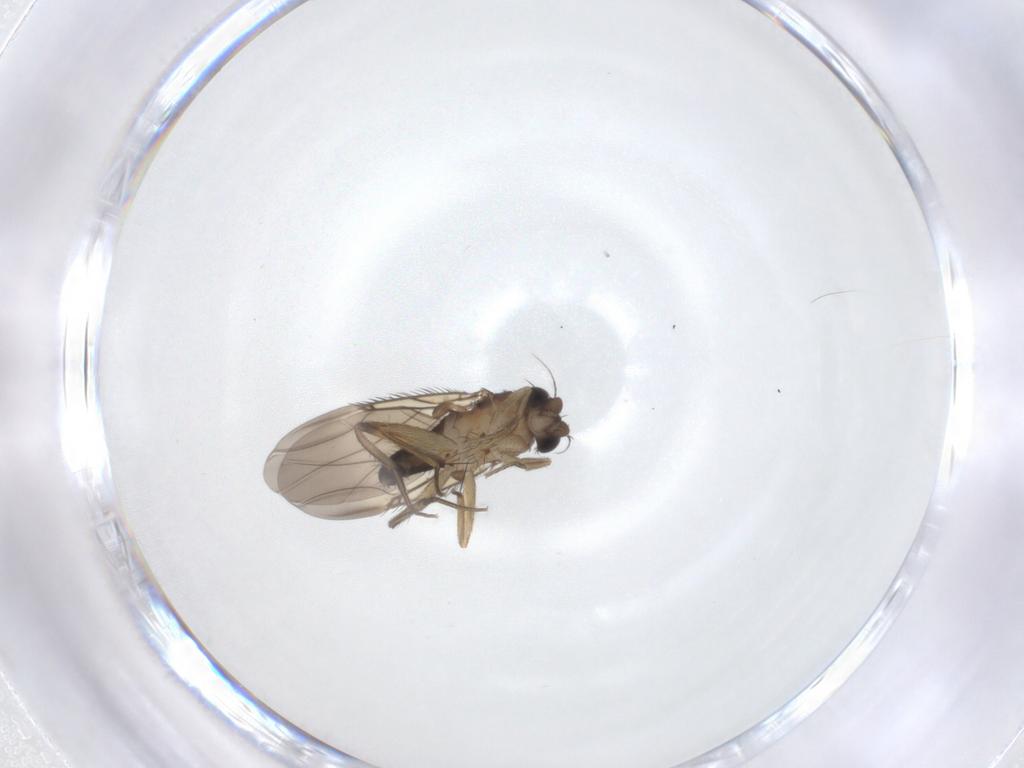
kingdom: Animalia
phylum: Arthropoda
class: Insecta
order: Diptera
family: Phoridae
